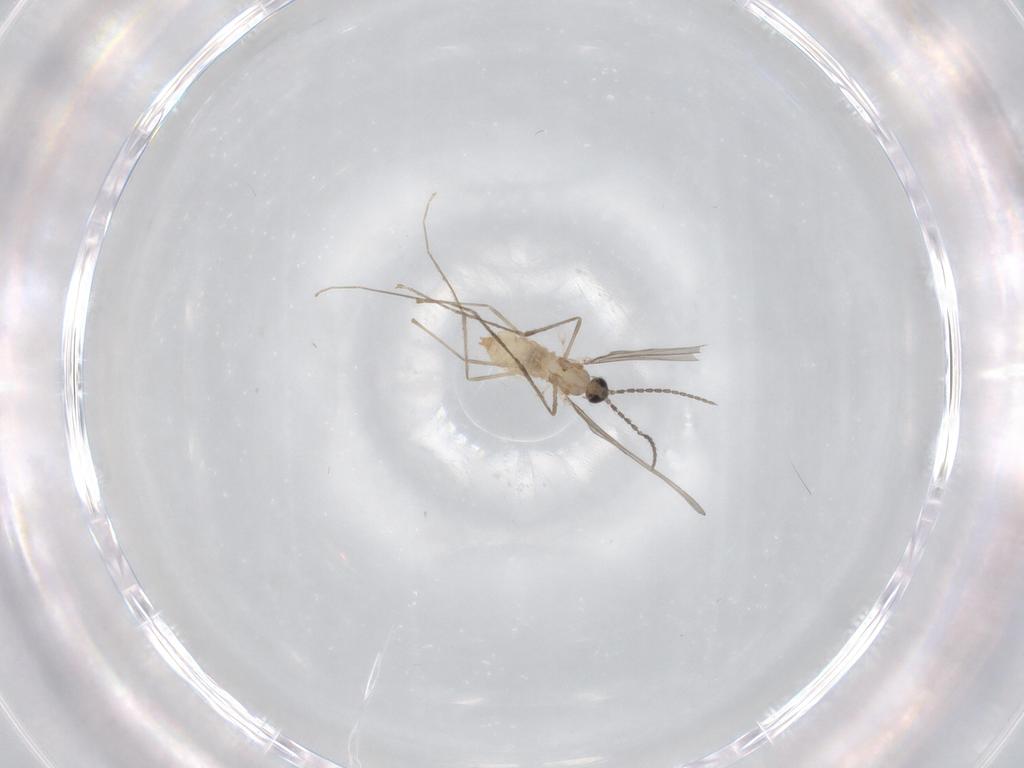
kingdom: Animalia
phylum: Arthropoda
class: Insecta
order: Diptera
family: Cecidomyiidae
